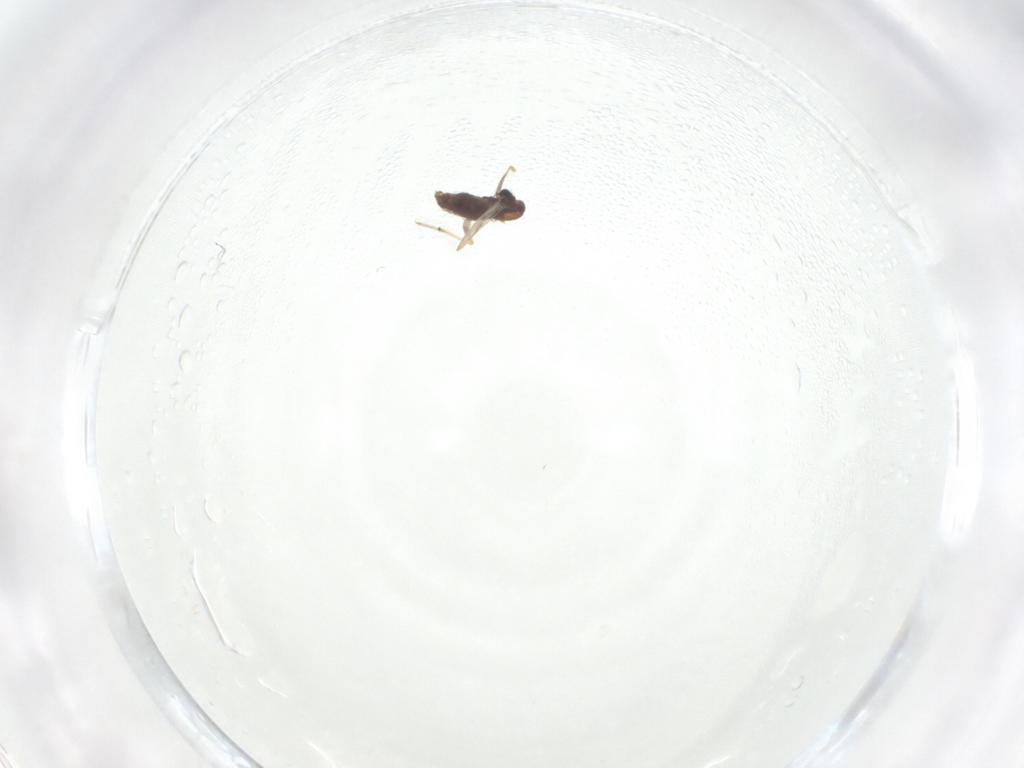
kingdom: Animalia
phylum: Arthropoda
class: Insecta
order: Diptera
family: Chironomidae
